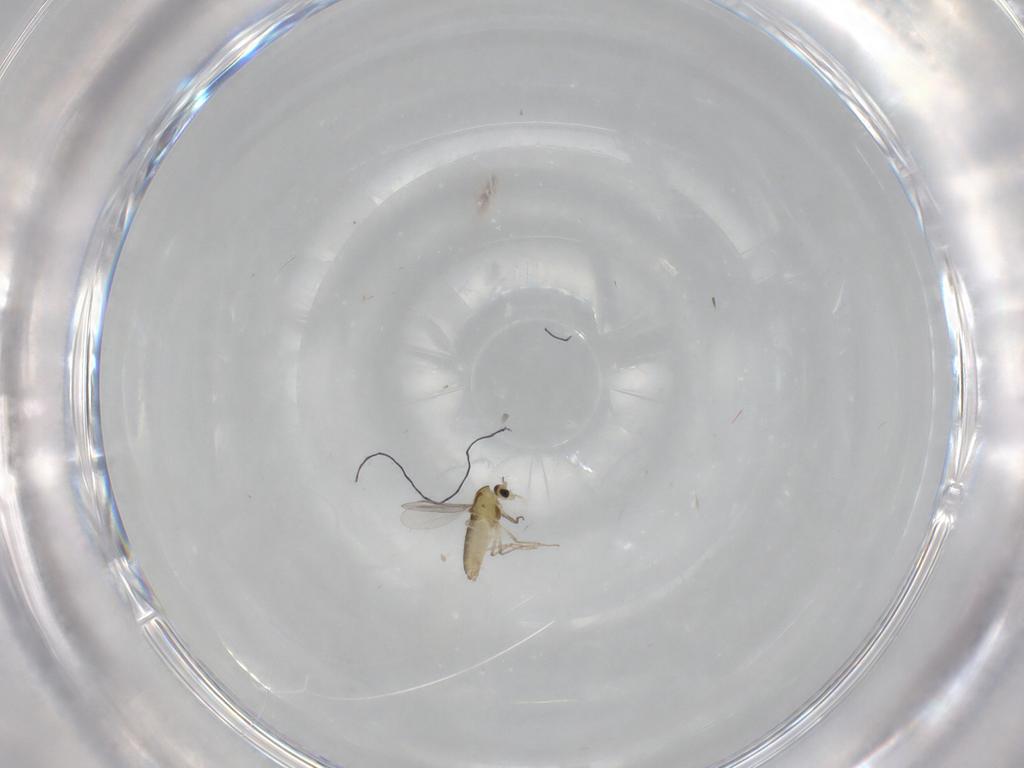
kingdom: Animalia
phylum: Arthropoda
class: Insecta
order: Diptera
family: Chironomidae
